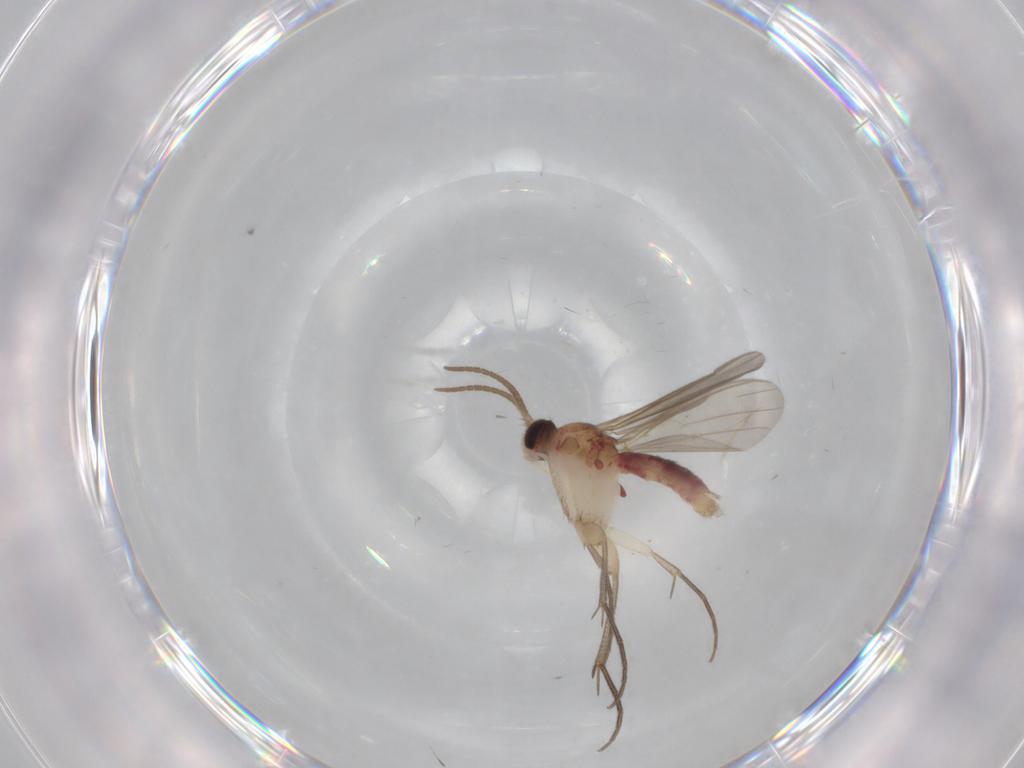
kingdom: Animalia
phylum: Arthropoda
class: Insecta
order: Diptera
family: Mycetophilidae
